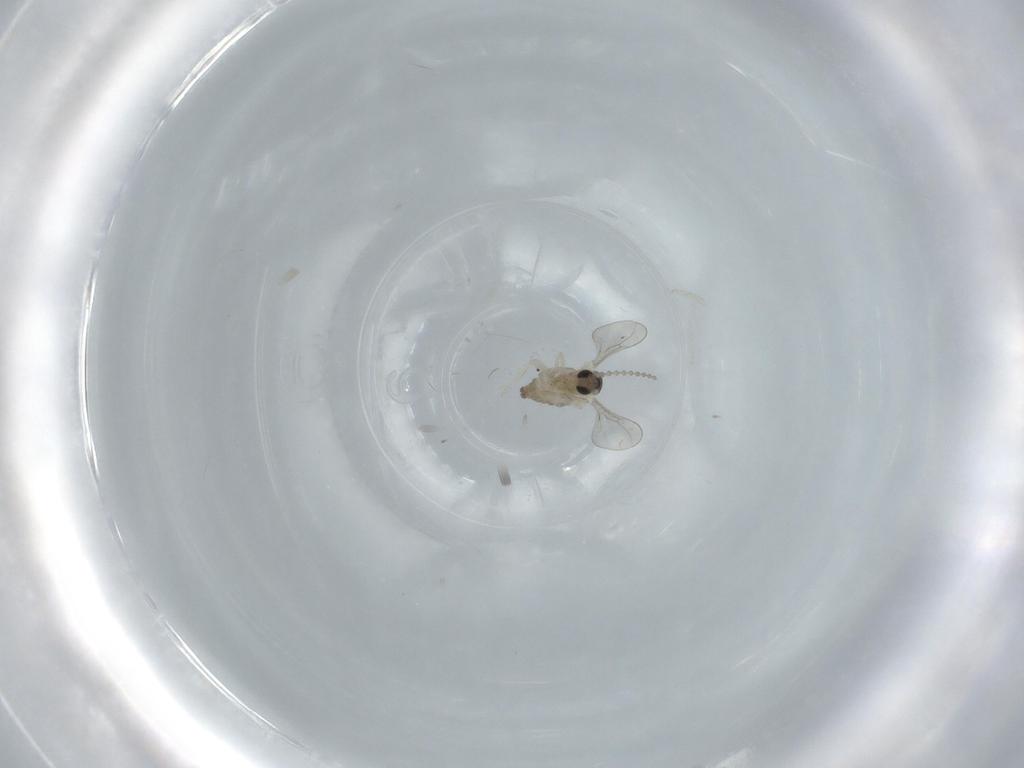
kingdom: Animalia
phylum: Arthropoda
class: Insecta
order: Diptera
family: Cecidomyiidae
